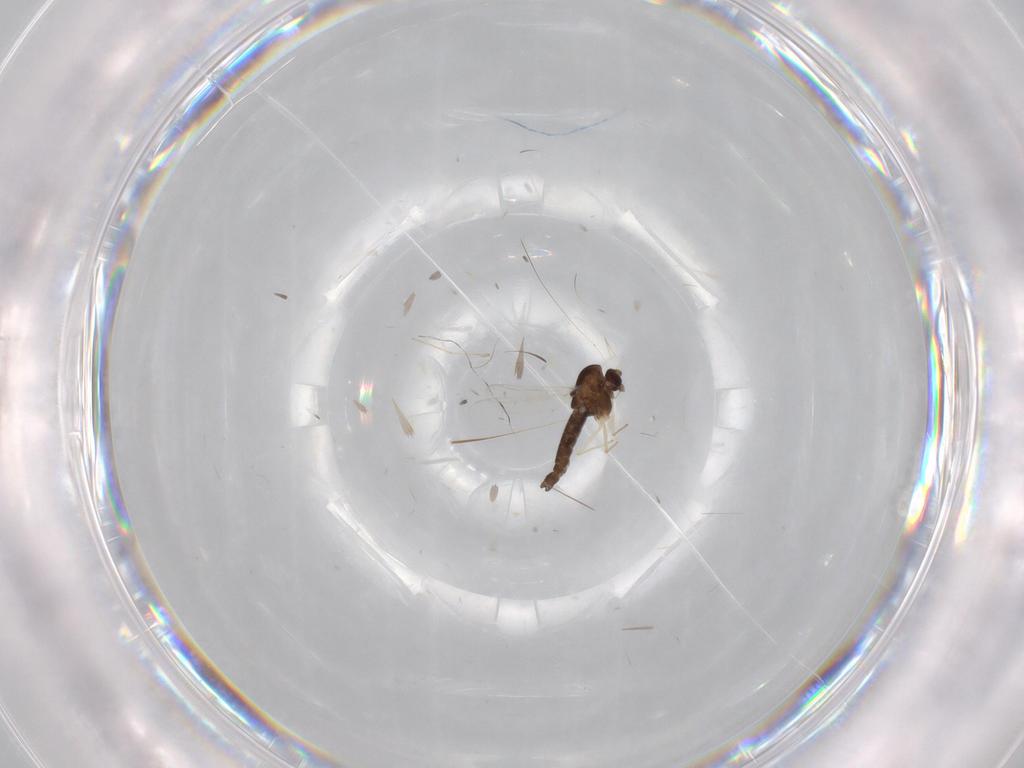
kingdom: Animalia
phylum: Arthropoda
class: Insecta
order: Diptera
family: Chironomidae
